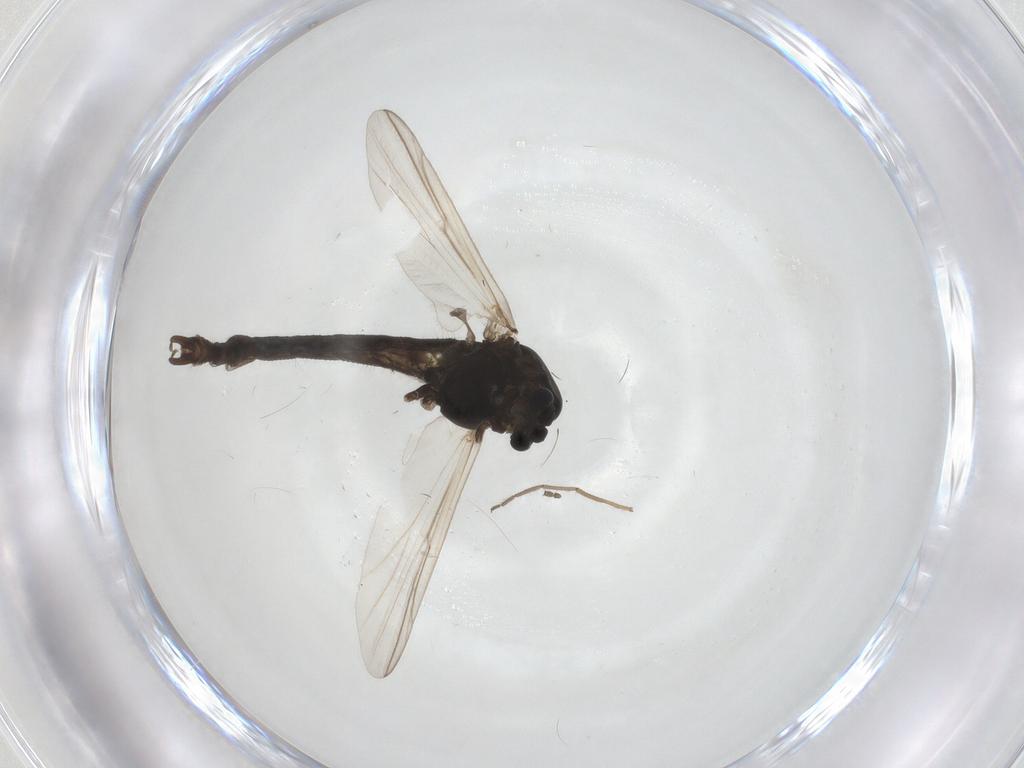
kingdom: Animalia
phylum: Arthropoda
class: Insecta
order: Diptera
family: Chironomidae
